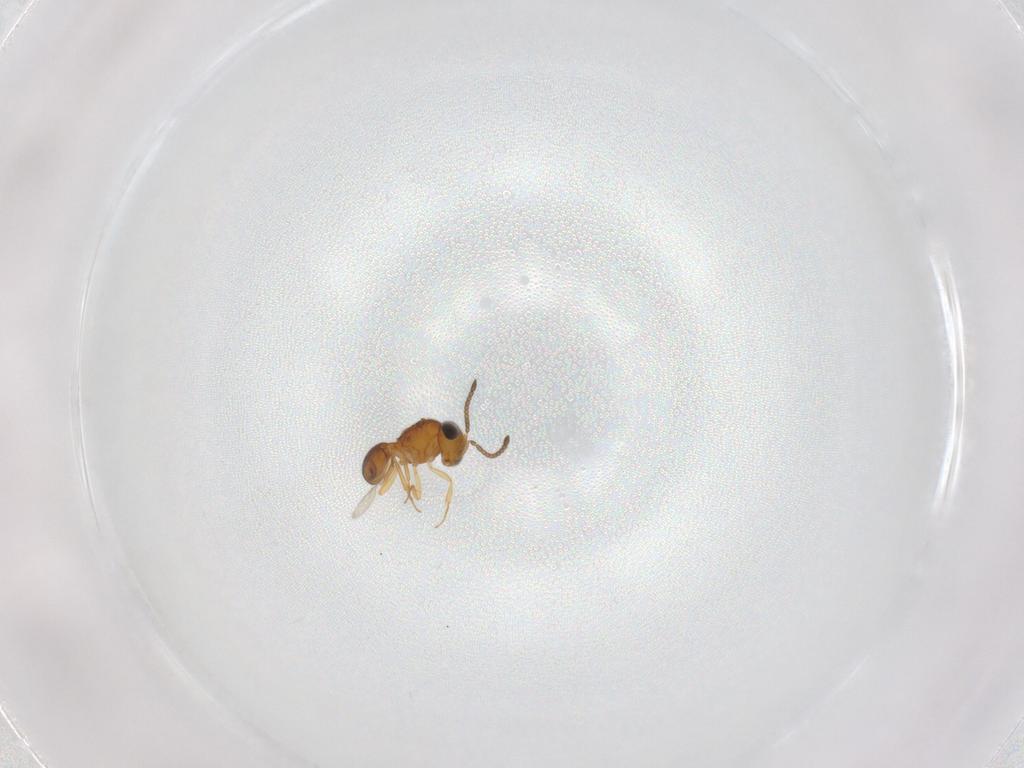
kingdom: Animalia
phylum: Arthropoda
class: Insecta
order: Hymenoptera
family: Scelionidae
